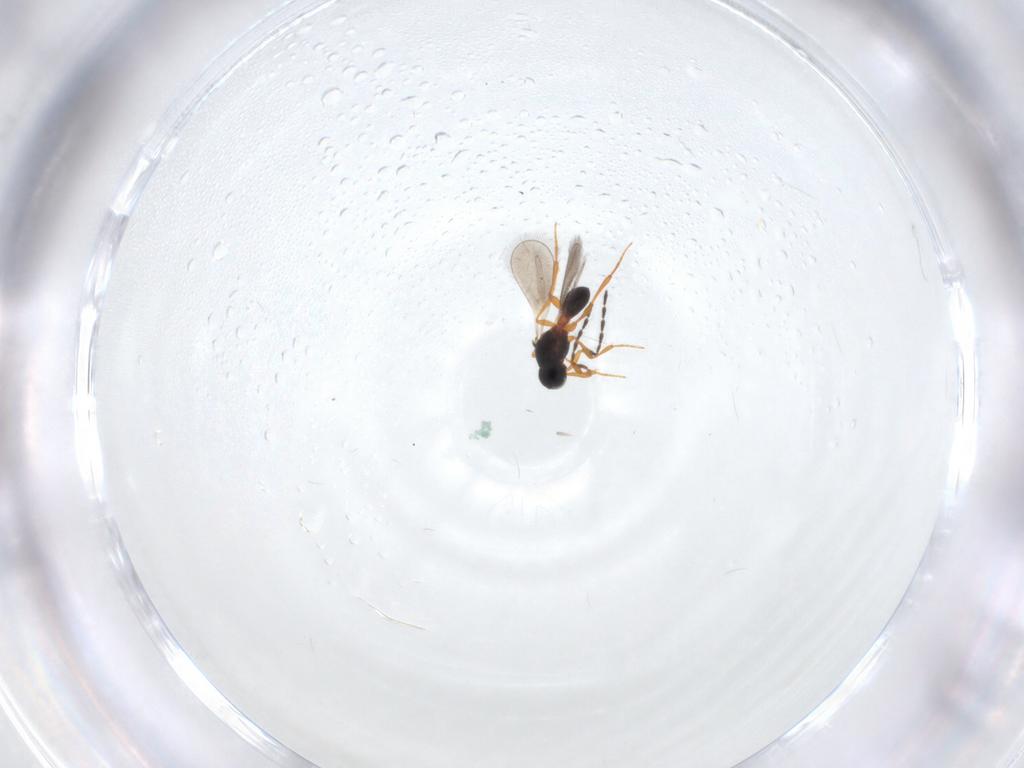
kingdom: Animalia
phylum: Arthropoda
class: Insecta
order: Hymenoptera
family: Platygastridae
